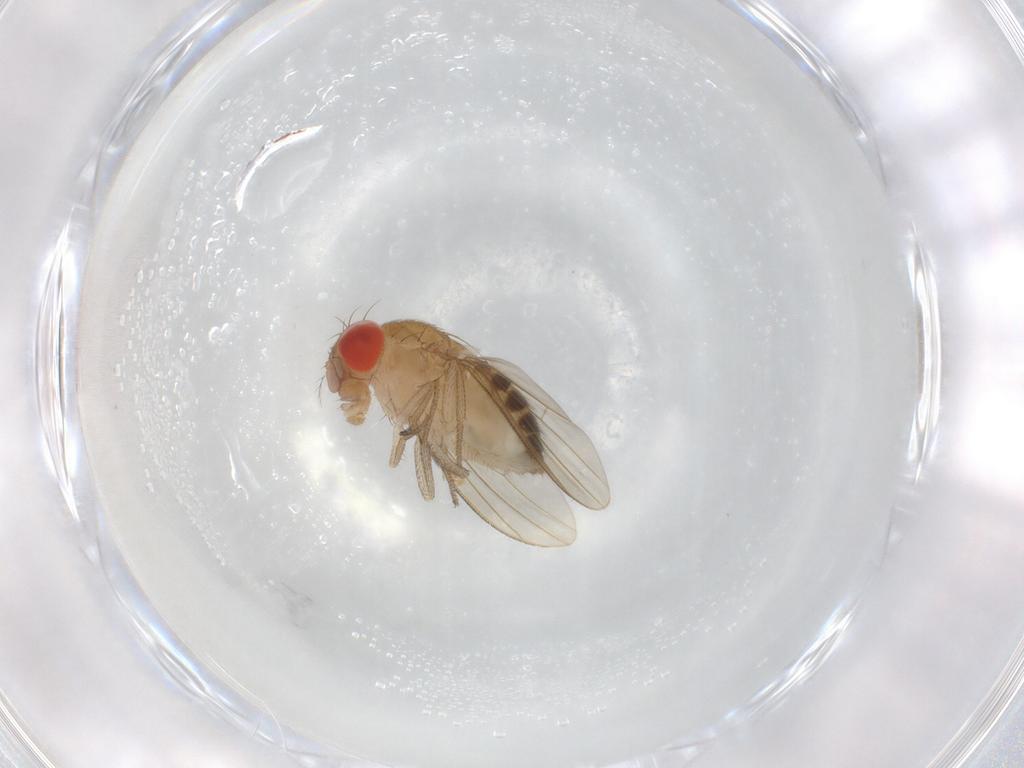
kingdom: Animalia
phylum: Arthropoda
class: Insecta
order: Diptera
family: Drosophilidae
